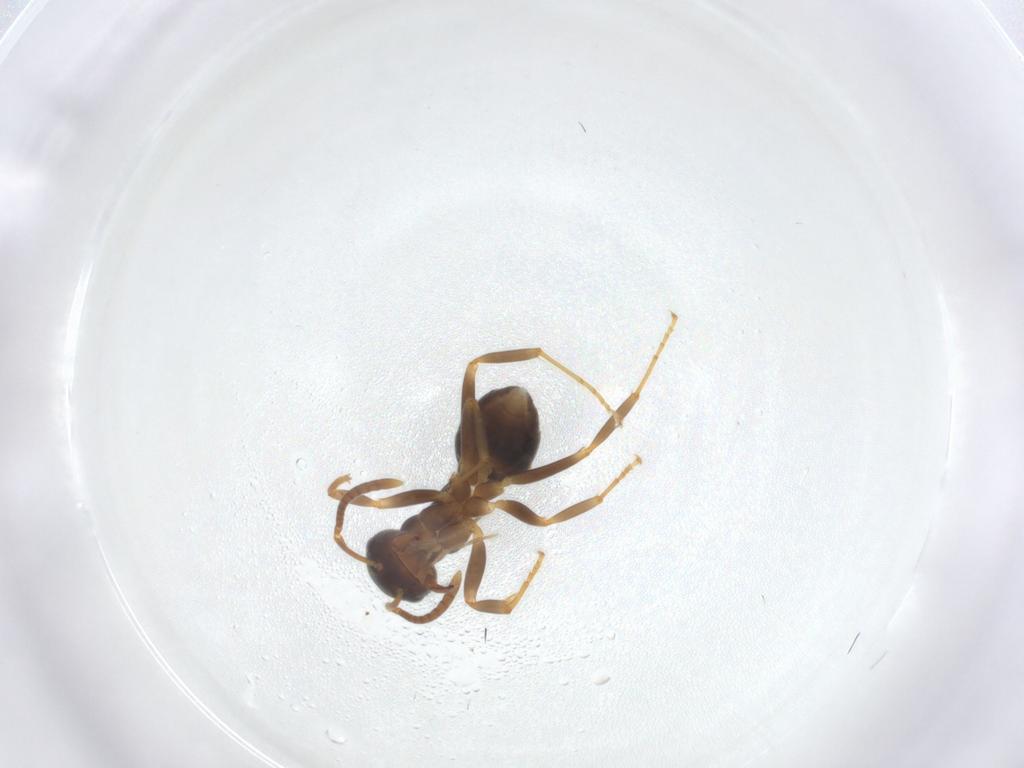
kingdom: Animalia
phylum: Arthropoda
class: Insecta
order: Hymenoptera
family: Formicidae
